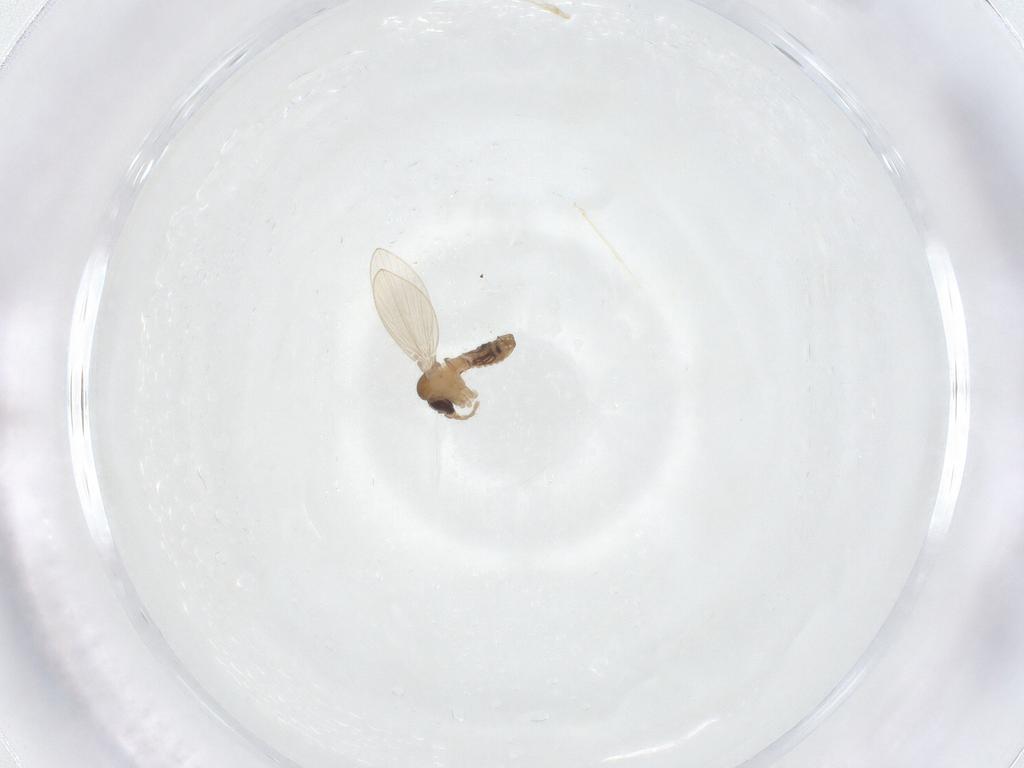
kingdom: Animalia
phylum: Arthropoda
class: Insecta
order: Diptera
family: Psychodidae
